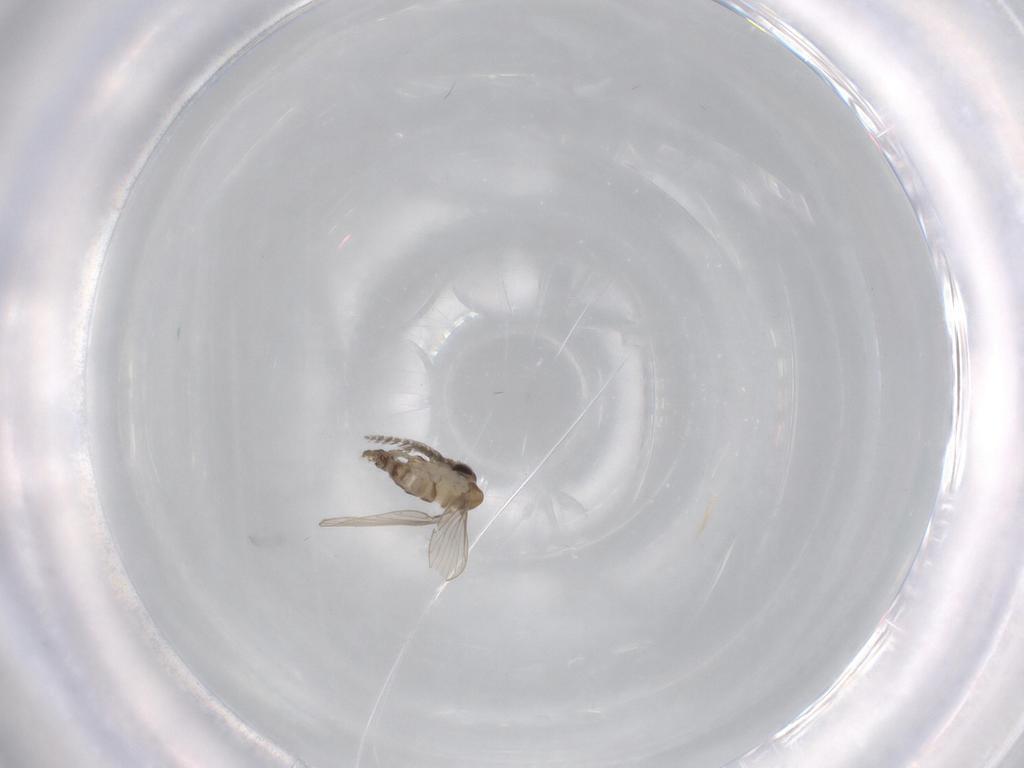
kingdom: Animalia
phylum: Arthropoda
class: Insecta
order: Diptera
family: Psychodidae
